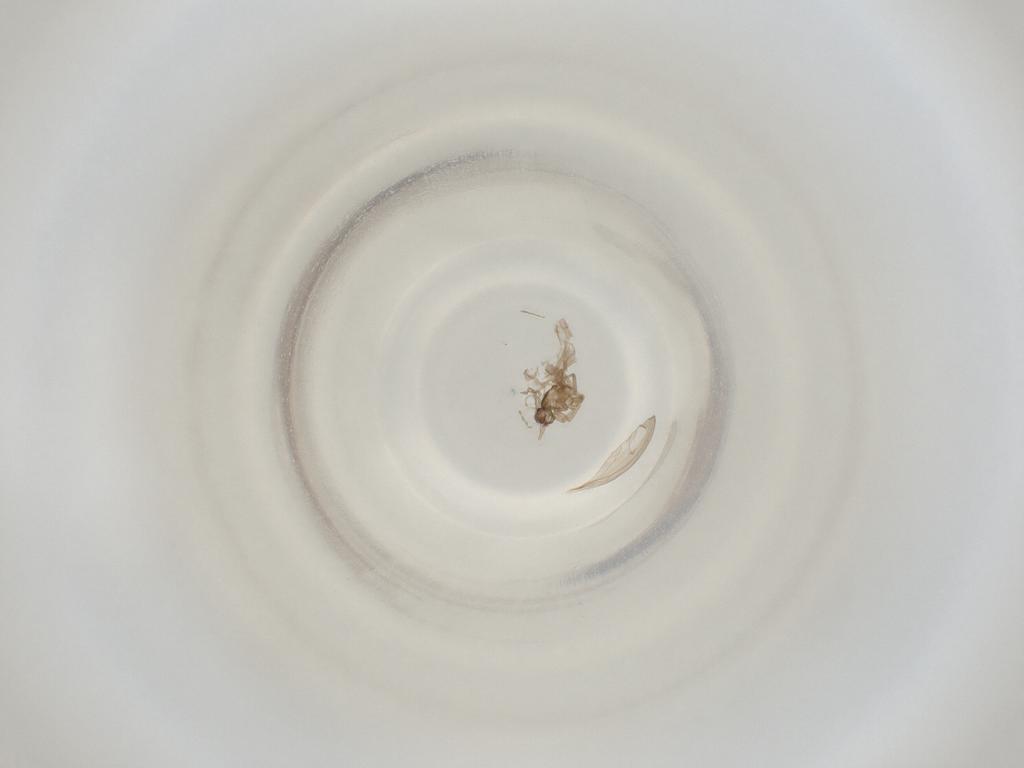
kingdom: Animalia
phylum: Arthropoda
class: Insecta
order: Diptera
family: Cecidomyiidae
